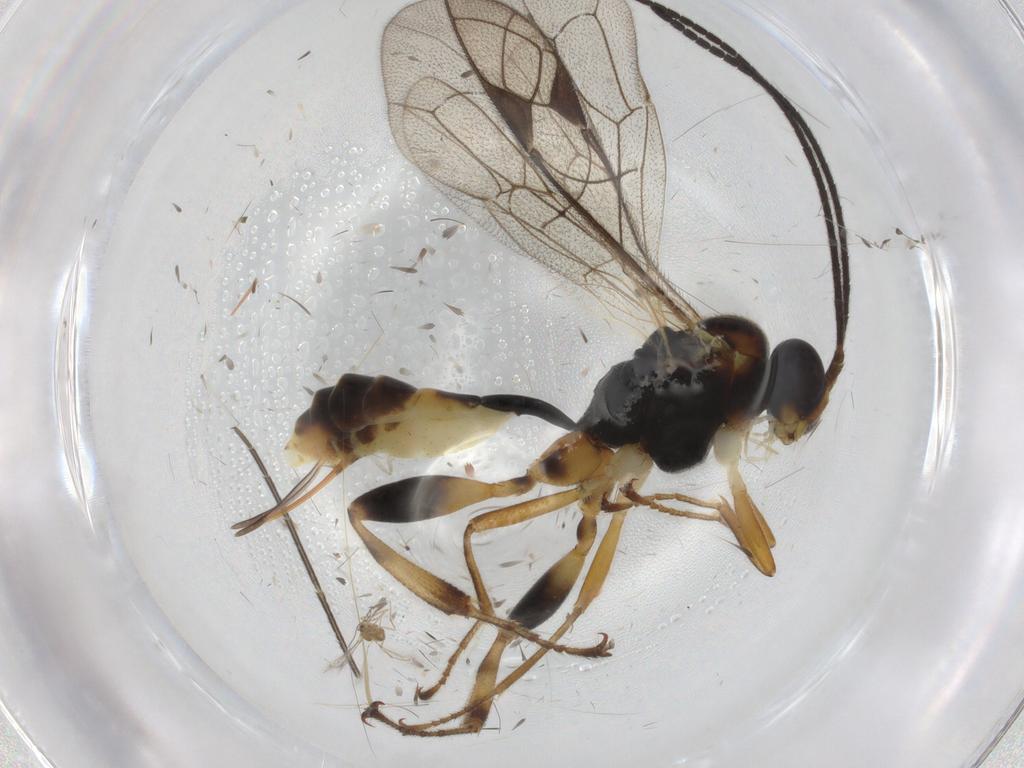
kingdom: Animalia
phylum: Arthropoda
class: Insecta
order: Hymenoptera
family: Ichneumonidae
